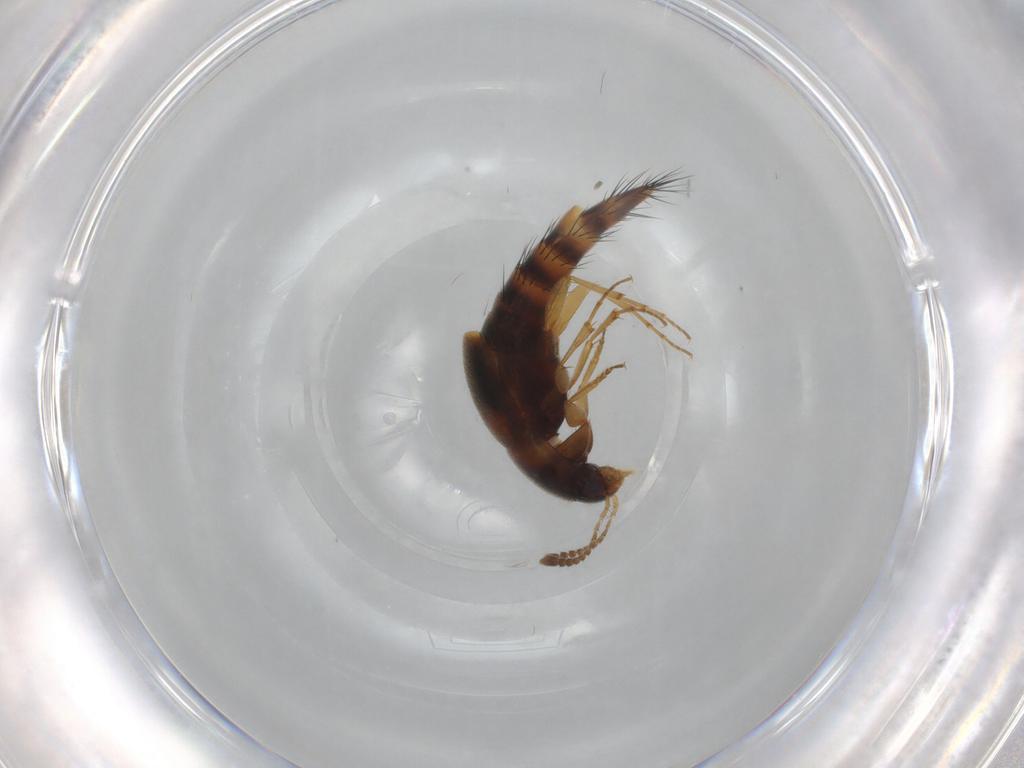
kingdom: Animalia
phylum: Arthropoda
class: Insecta
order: Coleoptera
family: Staphylinidae
